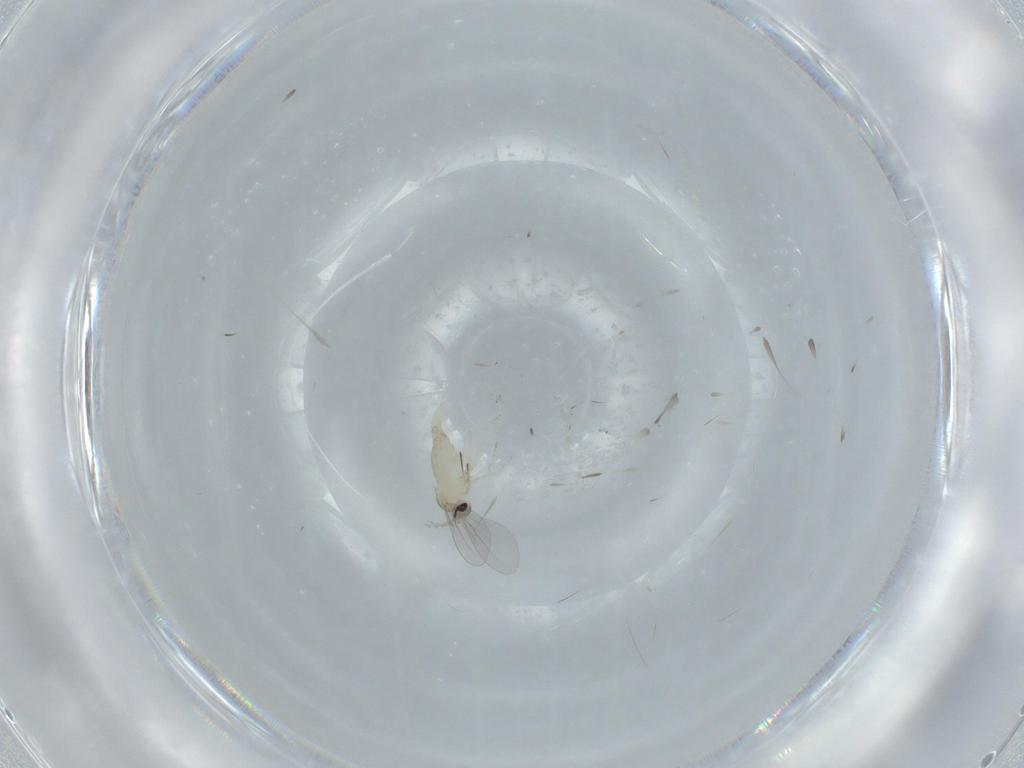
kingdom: Animalia
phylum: Arthropoda
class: Insecta
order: Diptera
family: Cecidomyiidae
